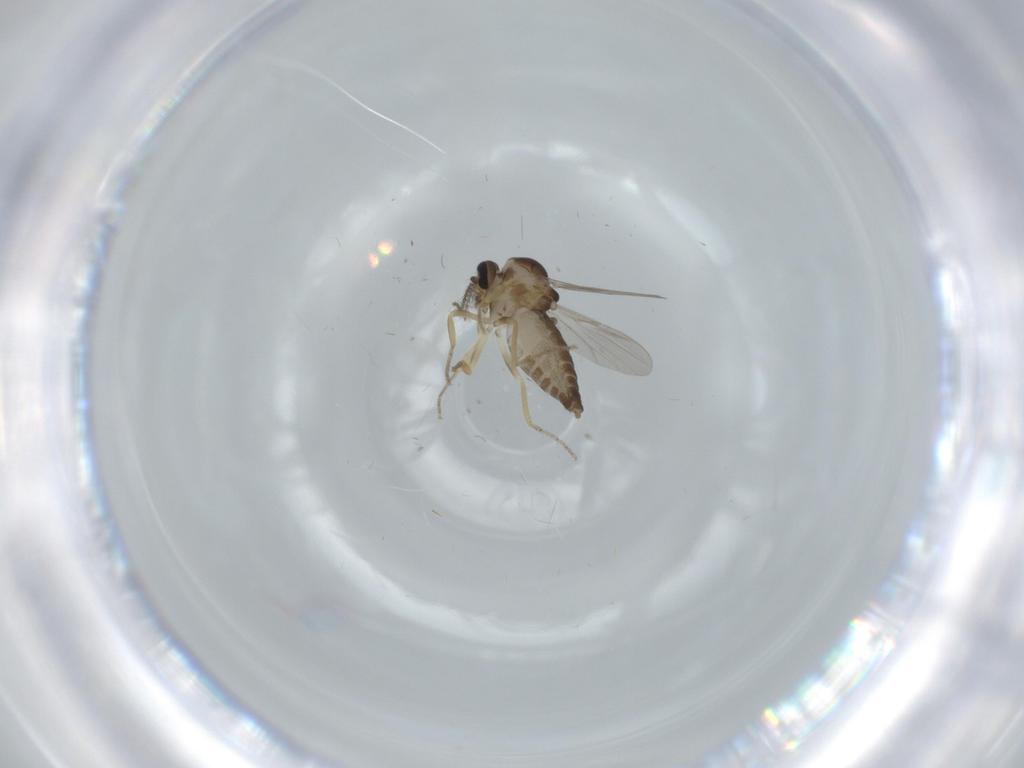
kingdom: Animalia
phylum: Arthropoda
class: Insecta
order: Diptera
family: Ceratopogonidae
